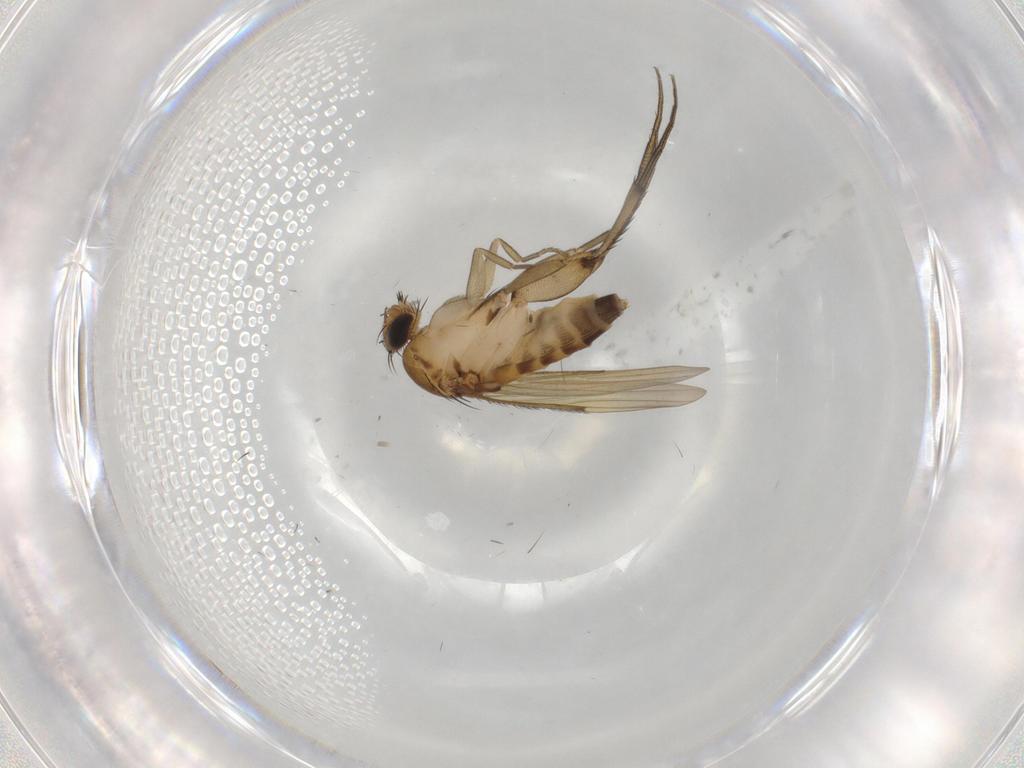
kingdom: Animalia
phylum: Arthropoda
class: Insecta
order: Diptera
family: Phoridae
